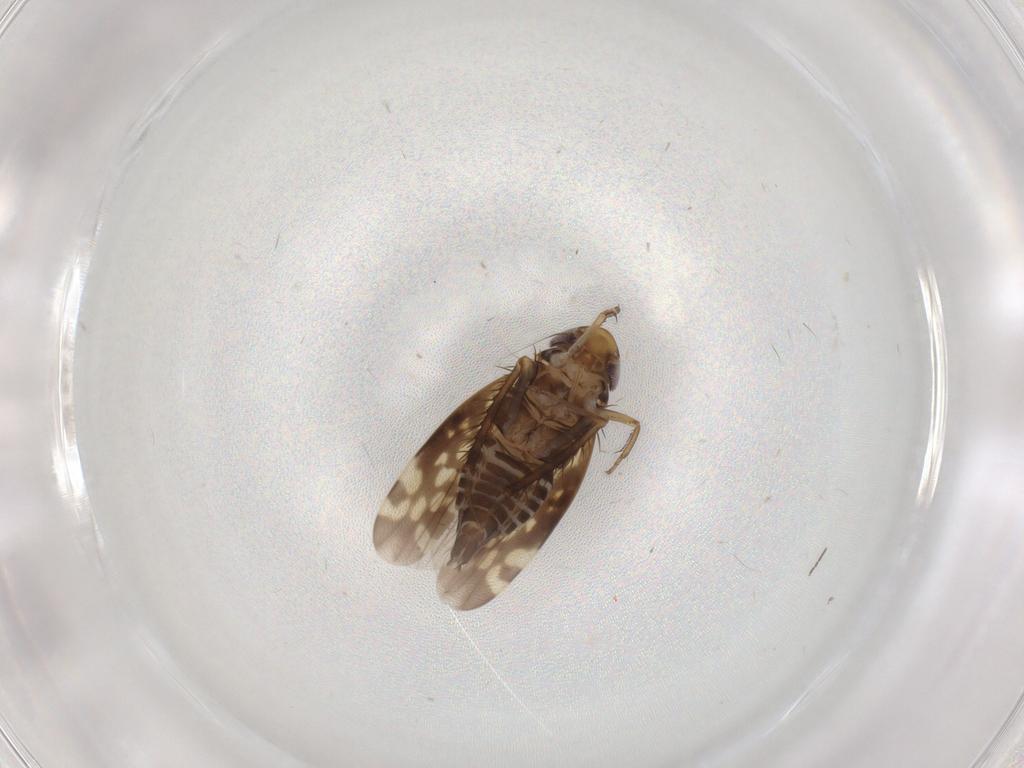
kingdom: Animalia
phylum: Arthropoda
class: Insecta
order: Hemiptera
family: Cicadellidae
